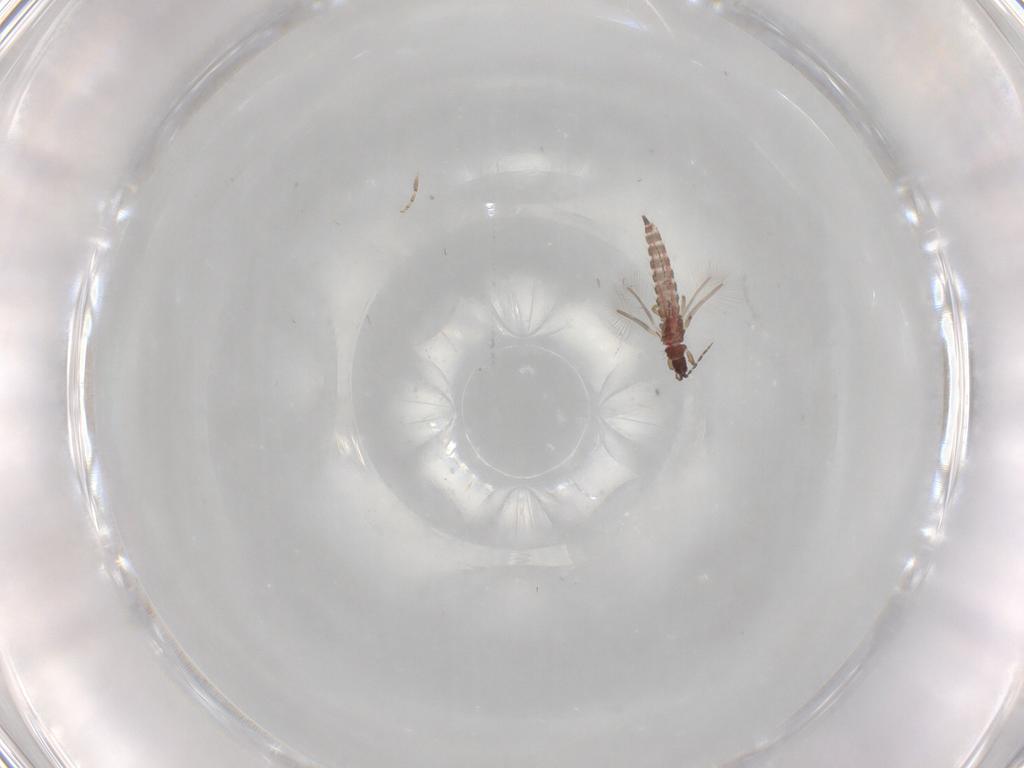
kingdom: Animalia
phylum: Arthropoda
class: Insecta
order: Thysanoptera
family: Phlaeothripidae
